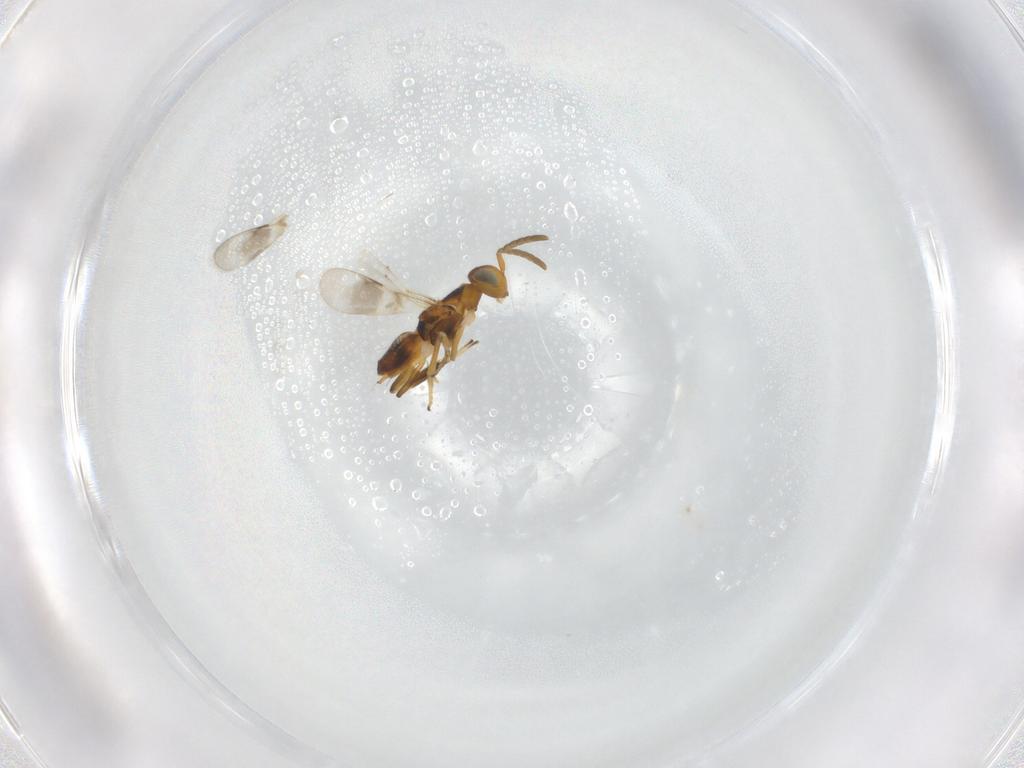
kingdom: Animalia
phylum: Arthropoda
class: Insecta
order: Hymenoptera
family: Encyrtidae
